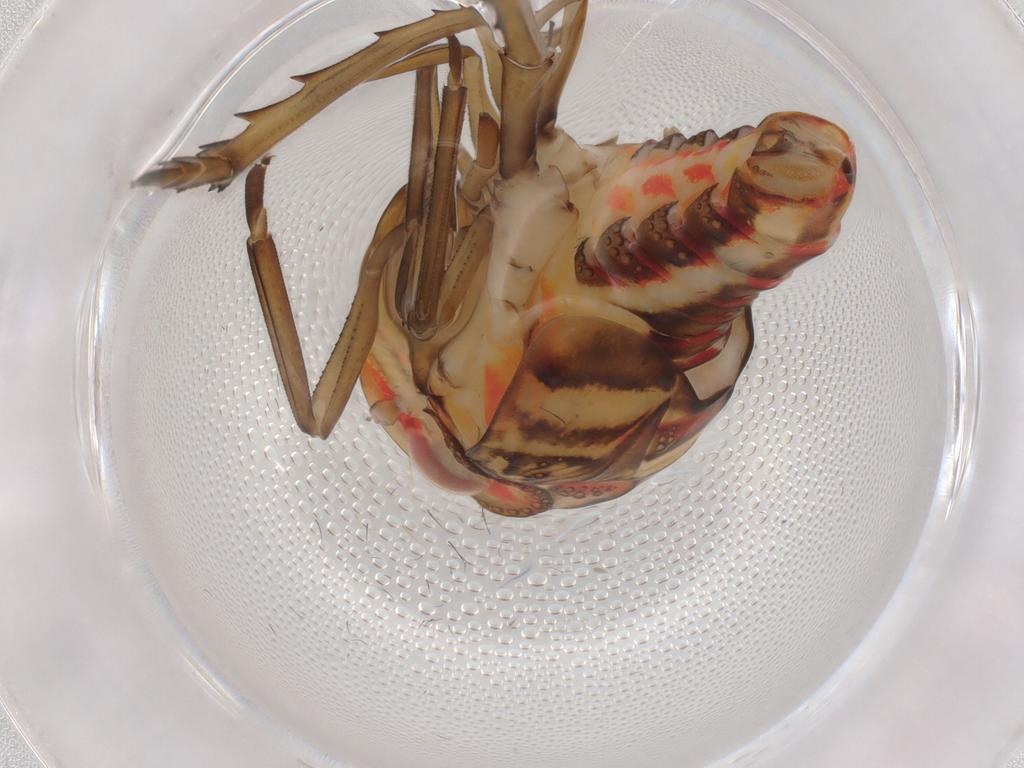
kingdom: Animalia
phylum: Arthropoda
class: Insecta
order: Hemiptera
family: Nogodinidae
